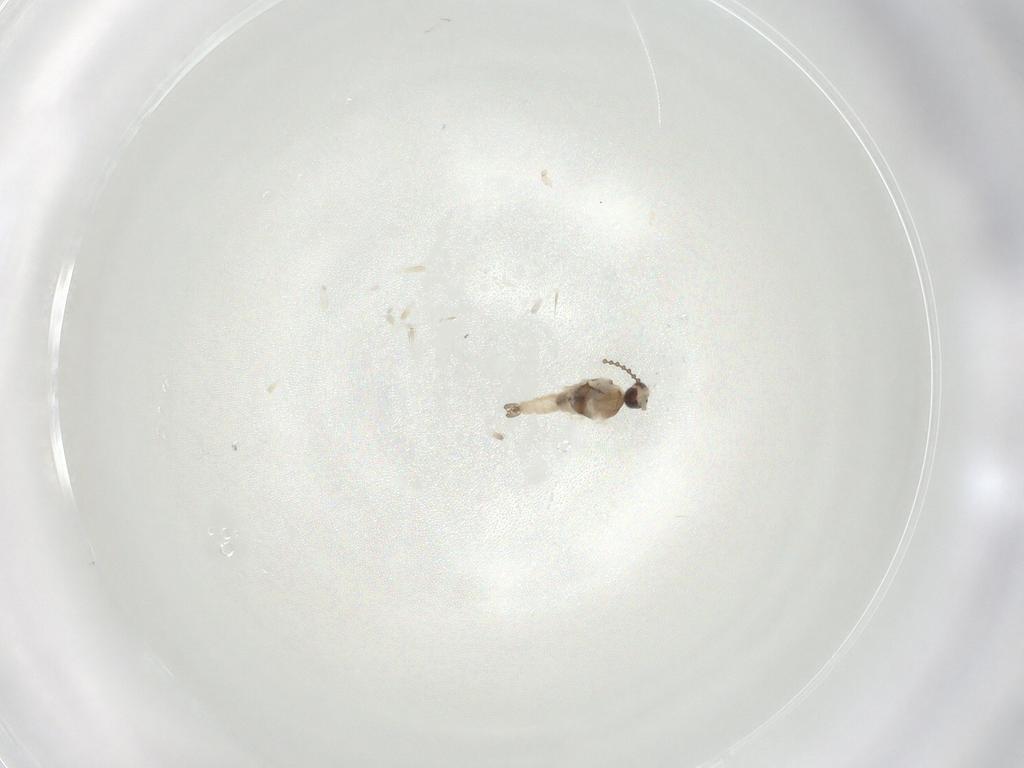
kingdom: Animalia
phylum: Arthropoda
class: Insecta
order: Diptera
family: Cecidomyiidae
